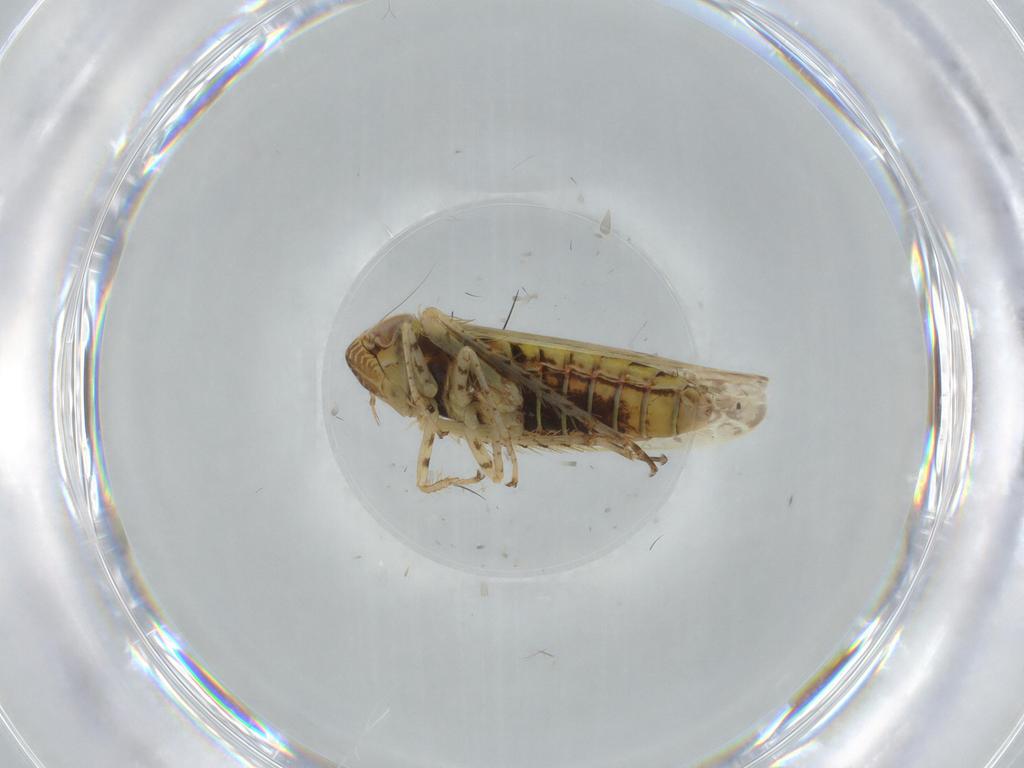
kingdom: Animalia
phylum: Arthropoda
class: Insecta
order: Hemiptera
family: Cicadellidae
